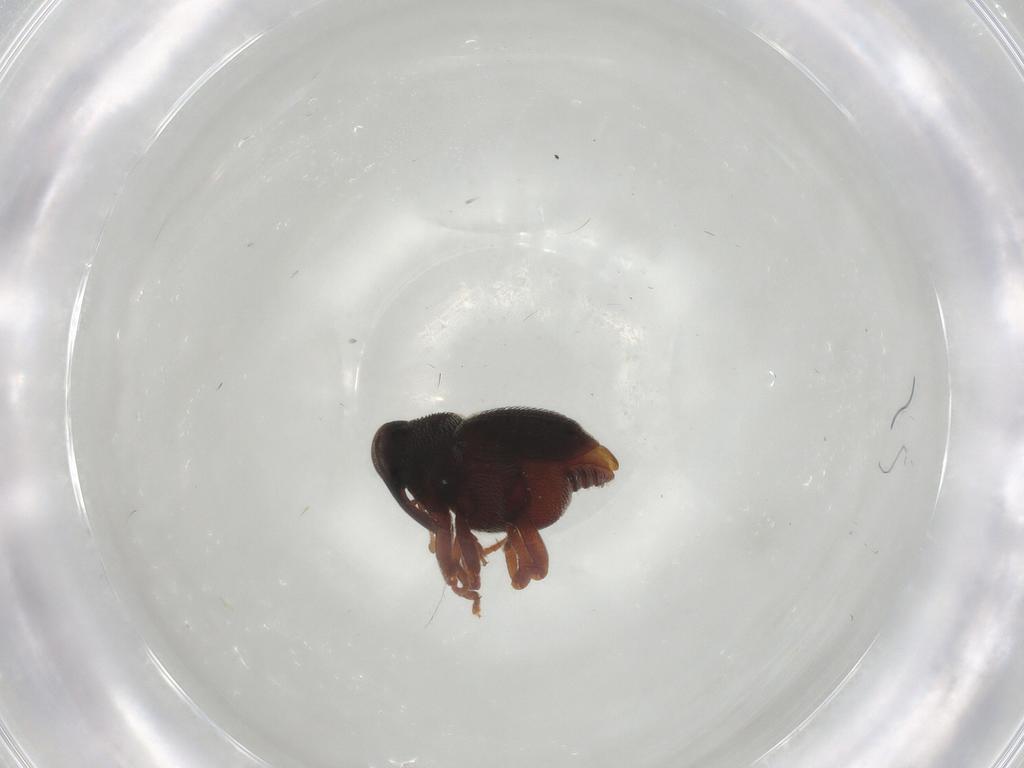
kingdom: Animalia
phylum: Arthropoda
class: Insecta
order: Coleoptera
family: Curculionidae
